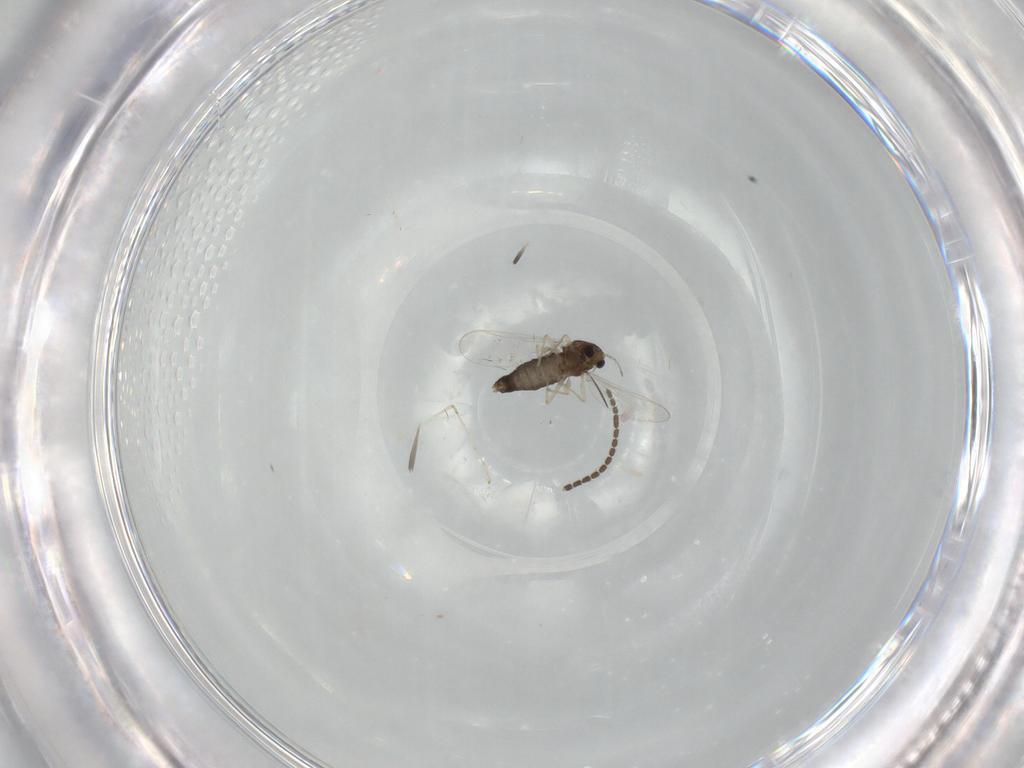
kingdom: Animalia
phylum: Arthropoda
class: Insecta
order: Diptera
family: Chironomidae
